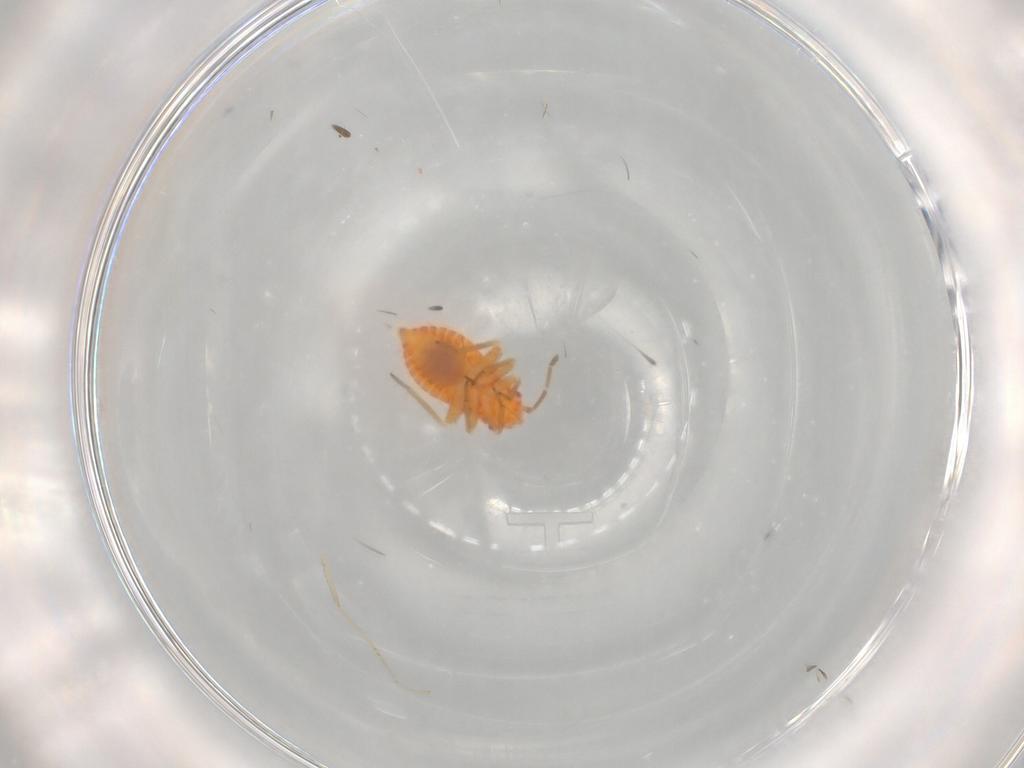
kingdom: Animalia
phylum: Arthropoda
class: Insecta
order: Hemiptera
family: Miridae
